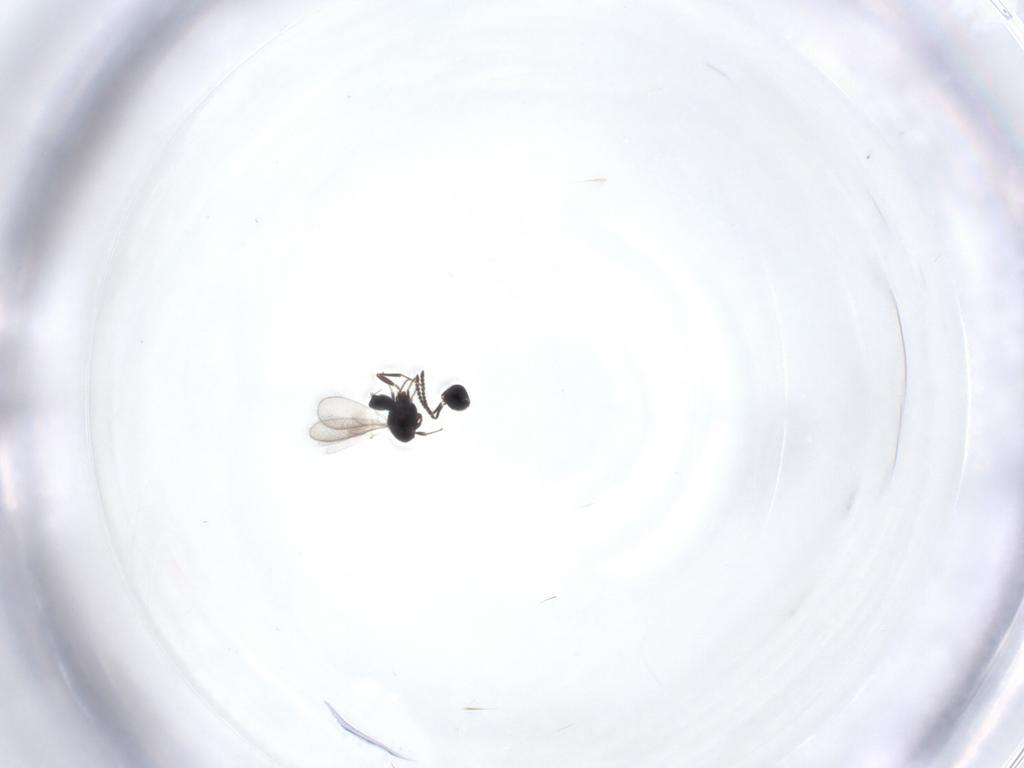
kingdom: Animalia
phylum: Arthropoda
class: Insecta
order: Hymenoptera
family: Scelionidae
